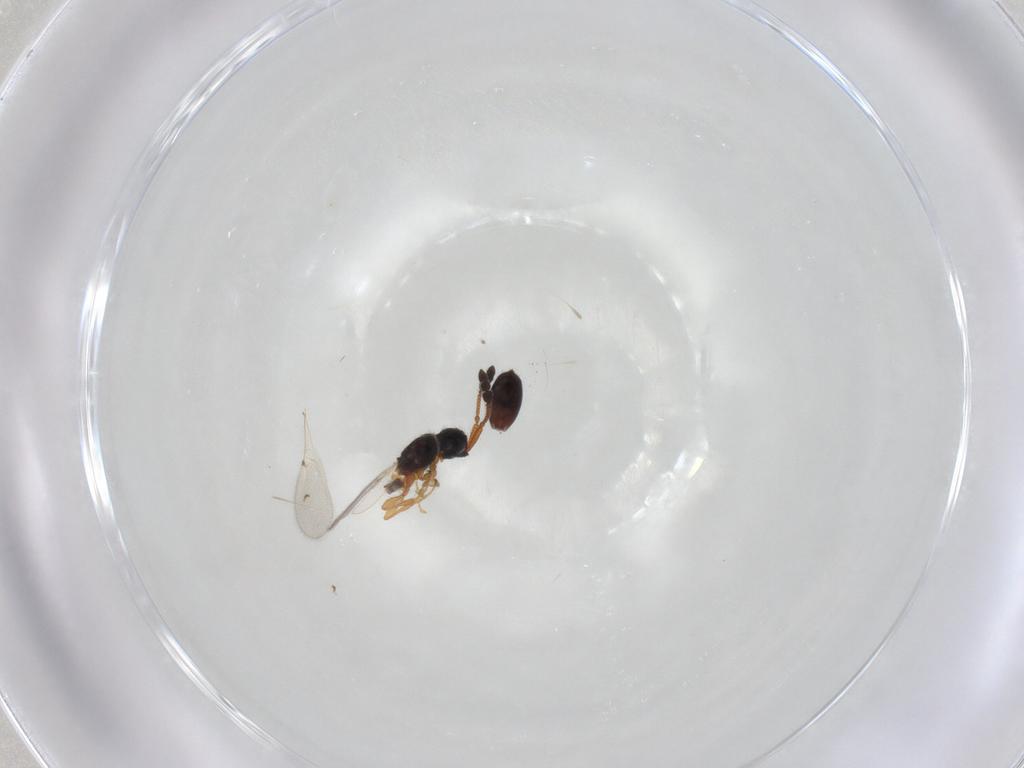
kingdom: Animalia
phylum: Arthropoda
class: Insecta
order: Hymenoptera
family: Diapriidae
